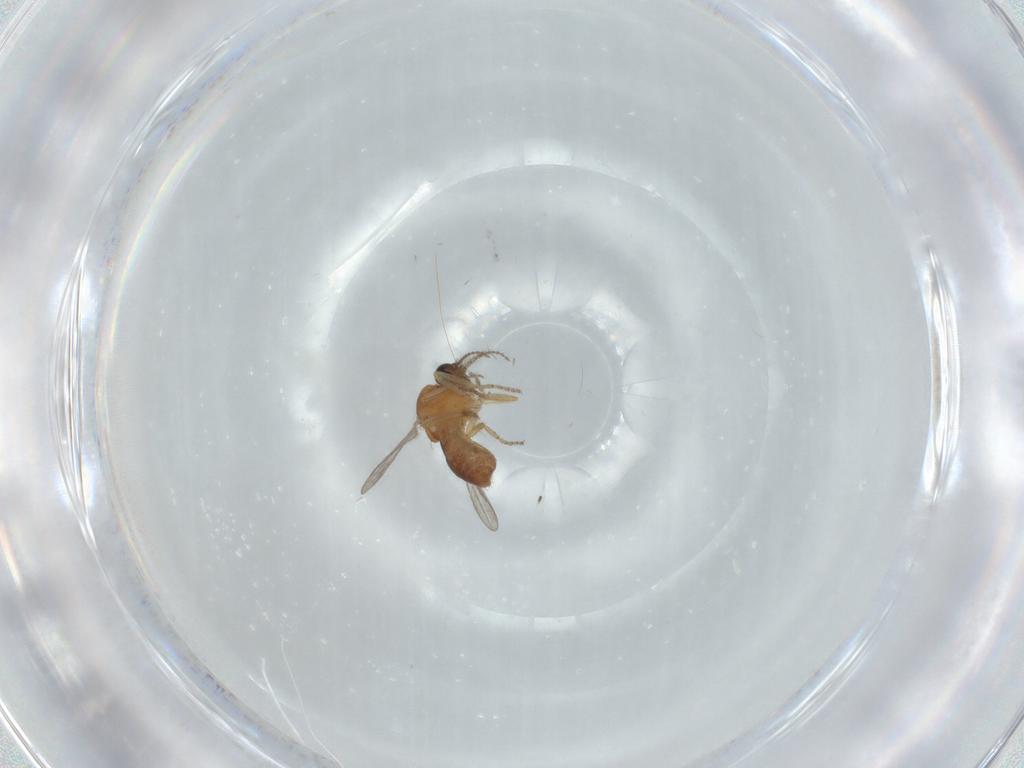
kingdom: Animalia
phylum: Arthropoda
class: Insecta
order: Diptera
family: Ceratopogonidae
